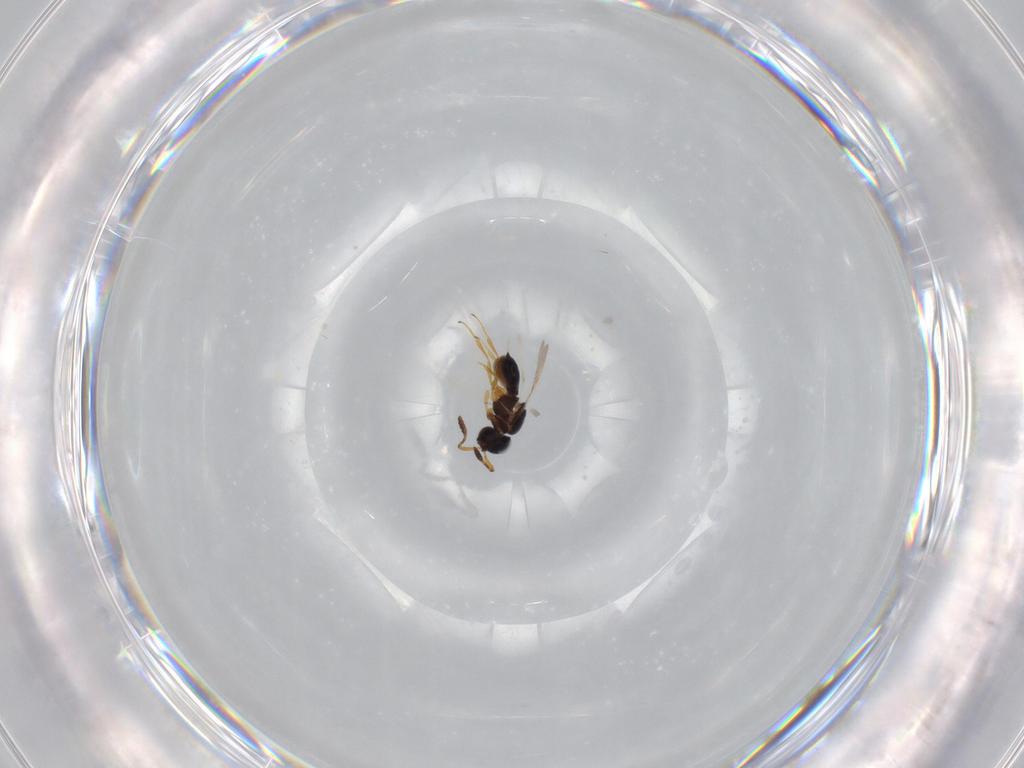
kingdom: Animalia
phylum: Arthropoda
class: Insecta
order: Hymenoptera
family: Scelionidae
